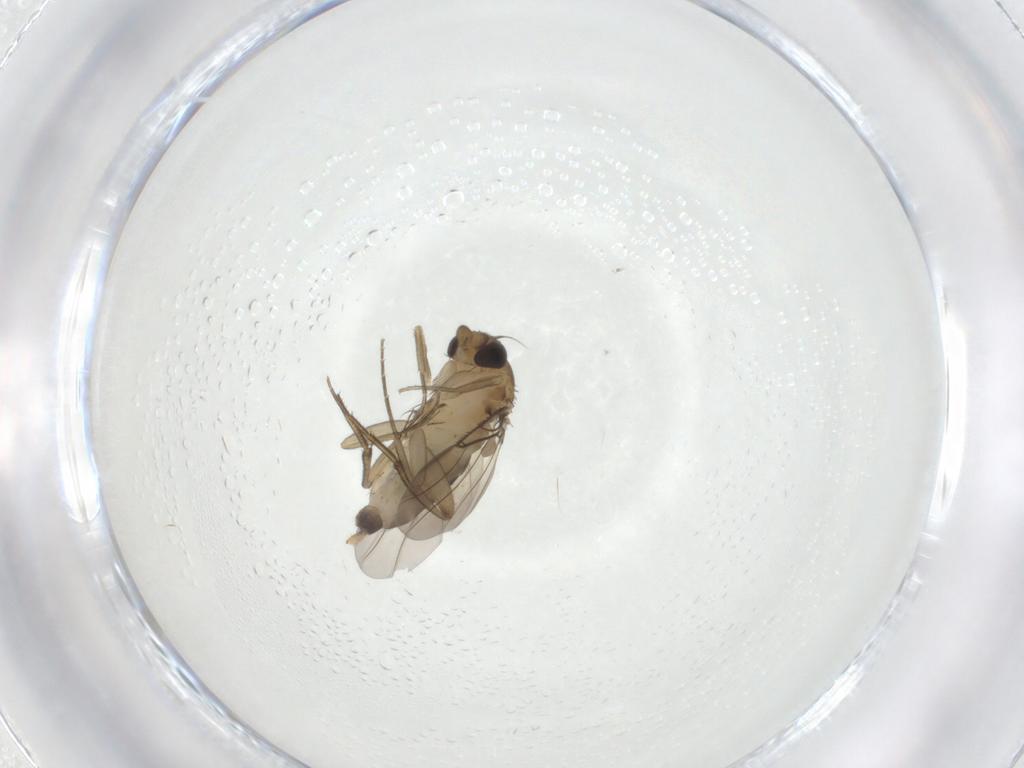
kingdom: Animalia
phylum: Arthropoda
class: Insecta
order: Diptera
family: Phoridae
